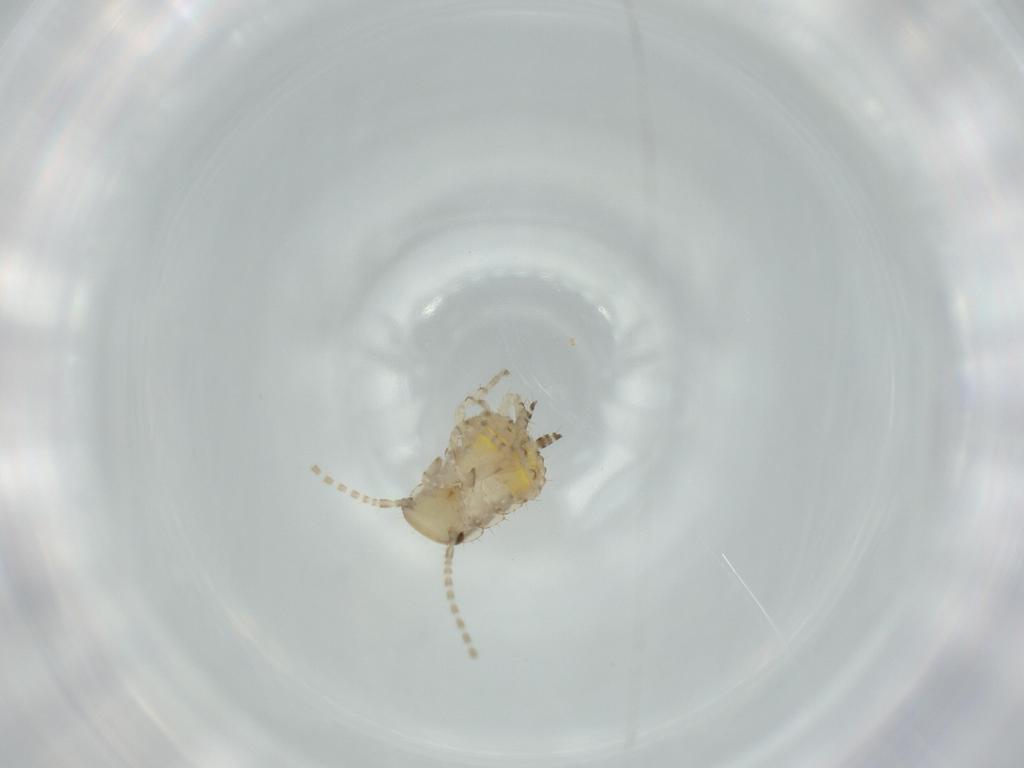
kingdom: Animalia
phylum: Arthropoda
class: Insecta
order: Blattodea
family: Ectobiidae
